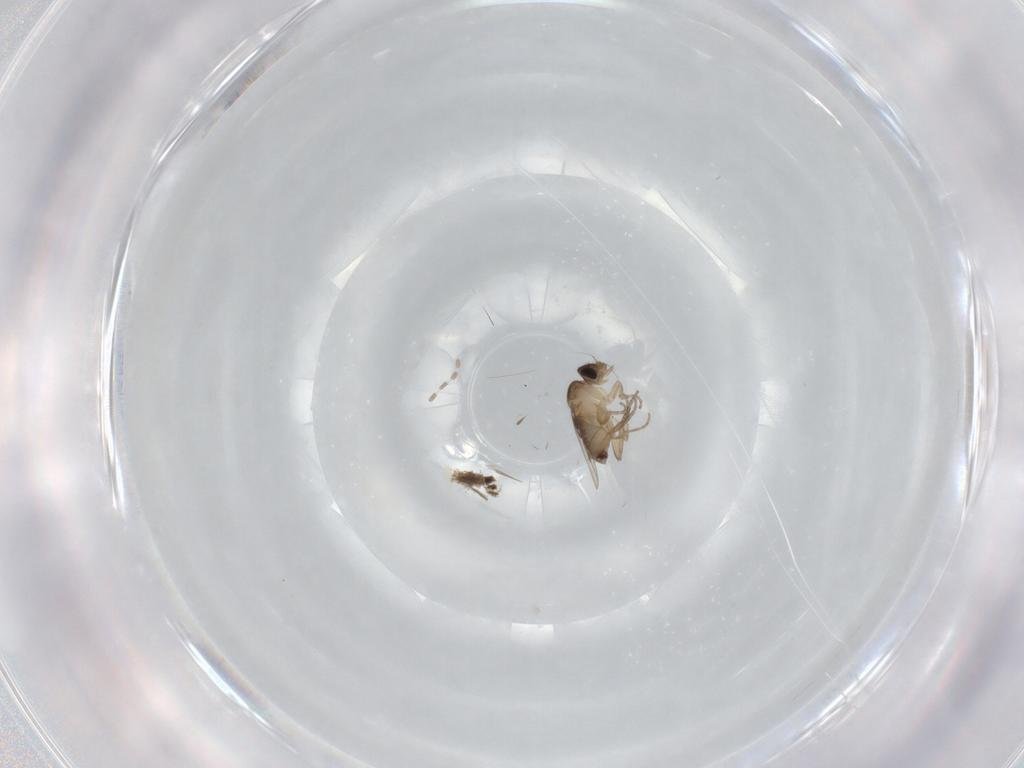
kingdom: Animalia
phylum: Arthropoda
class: Insecta
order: Diptera
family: Phoridae
